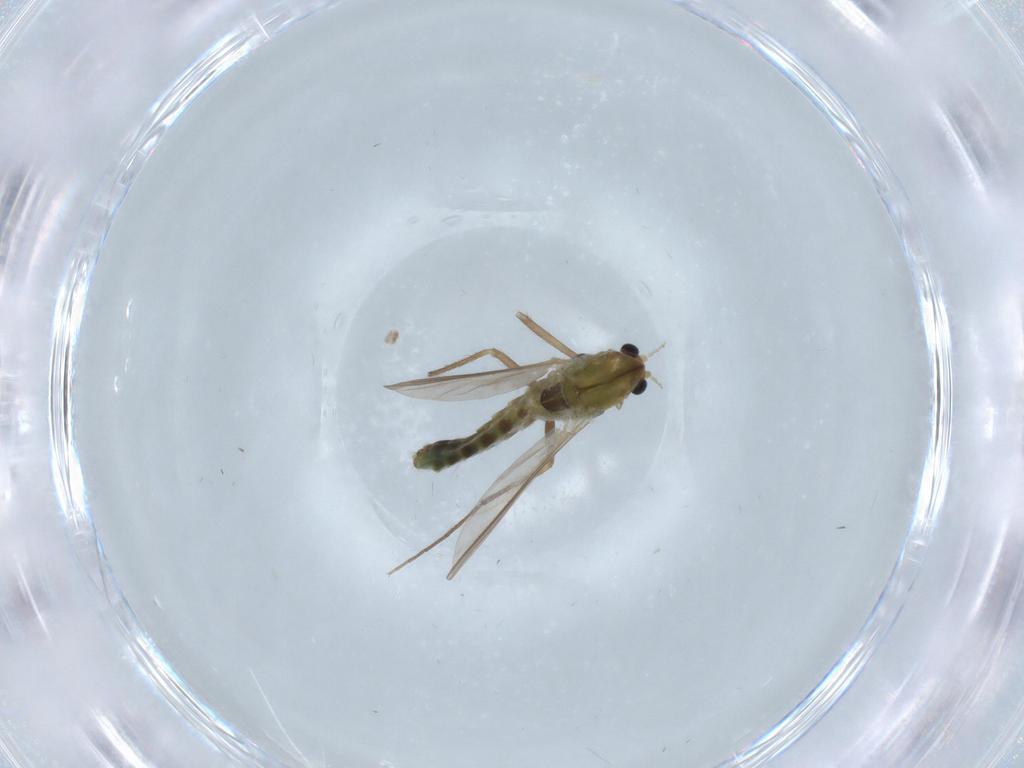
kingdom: Animalia
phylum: Arthropoda
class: Insecta
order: Diptera
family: Chironomidae
